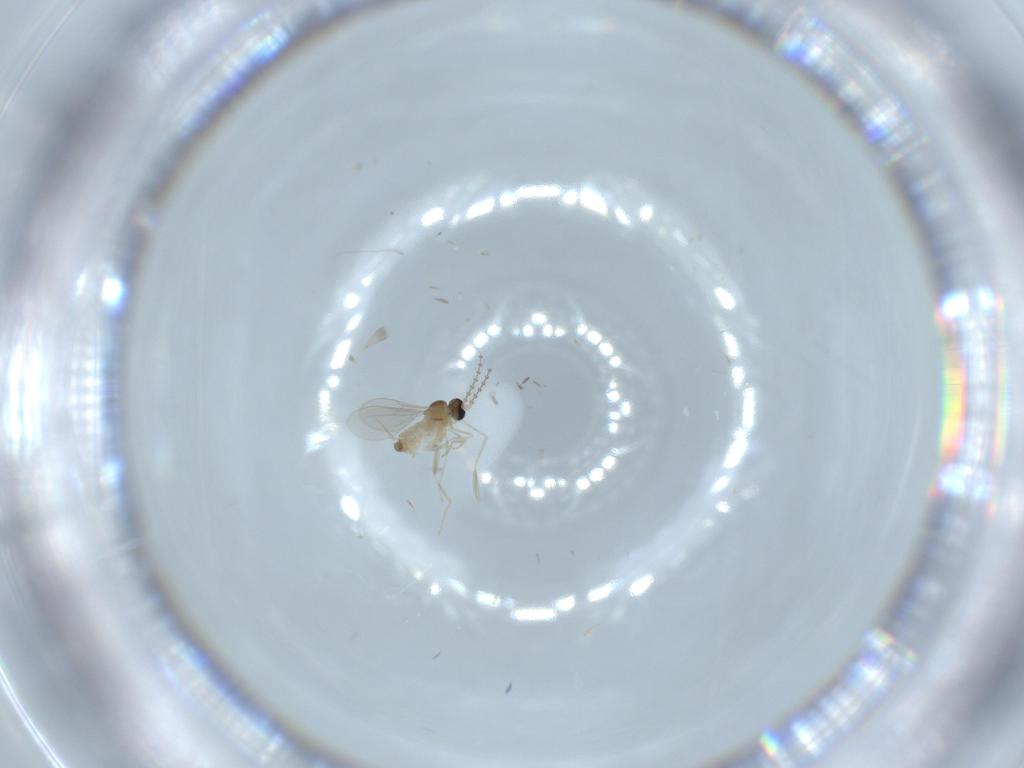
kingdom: Animalia
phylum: Arthropoda
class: Insecta
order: Diptera
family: Cecidomyiidae
